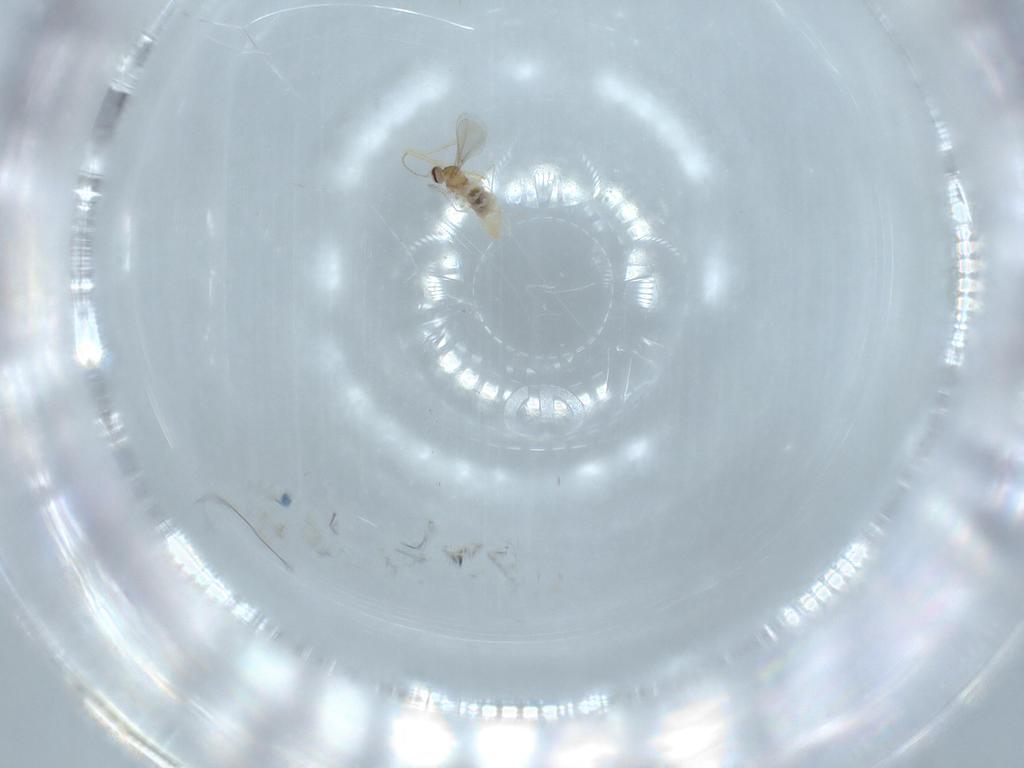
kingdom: Animalia
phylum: Arthropoda
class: Insecta
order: Diptera
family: Cecidomyiidae
